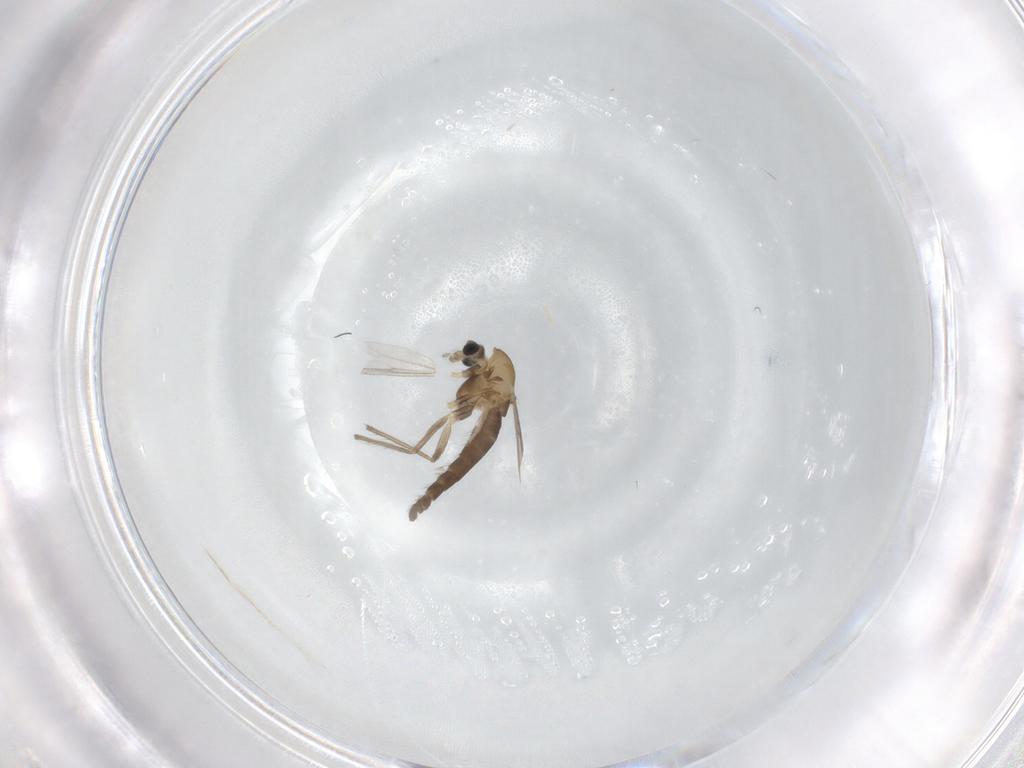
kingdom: Animalia
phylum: Arthropoda
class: Insecta
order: Diptera
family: Chironomidae
